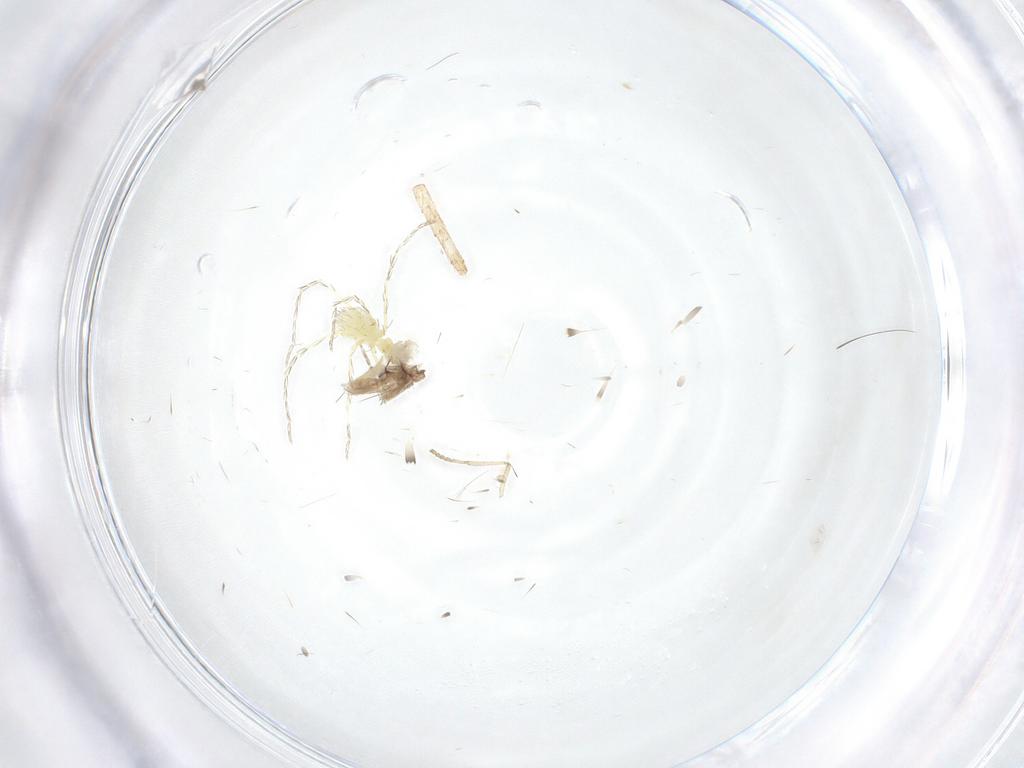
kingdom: Animalia
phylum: Arthropoda
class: Insecta
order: Diptera
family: Psychodidae
